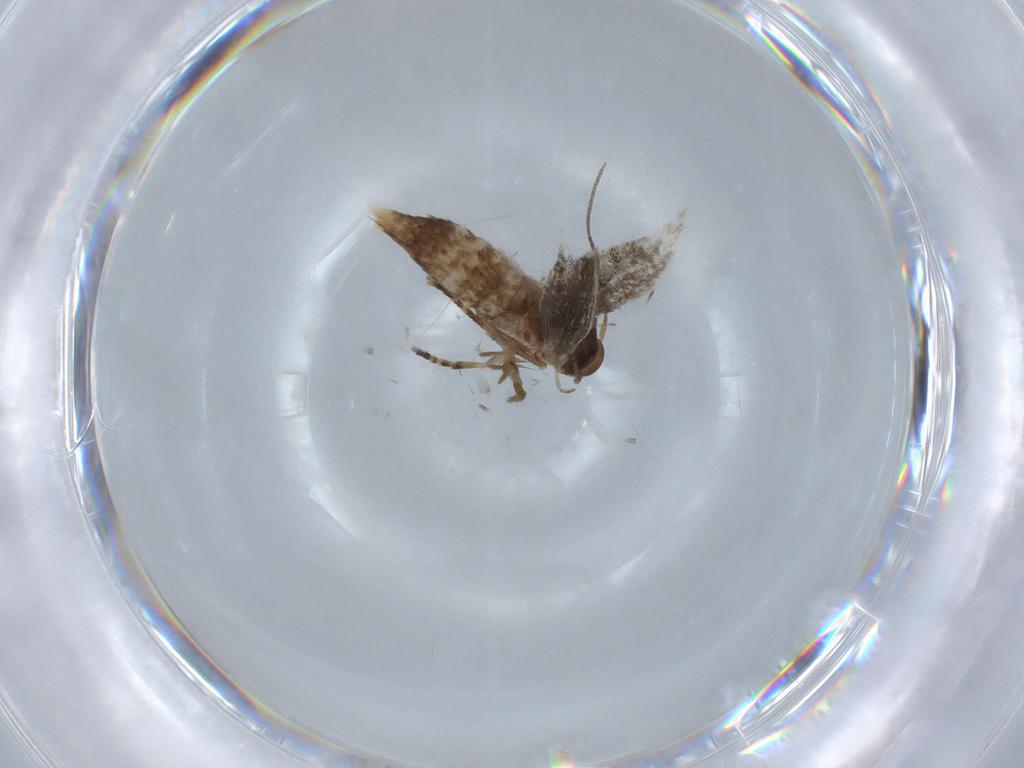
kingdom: Animalia
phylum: Arthropoda
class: Insecta
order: Lepidoptera
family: Elachistidae
